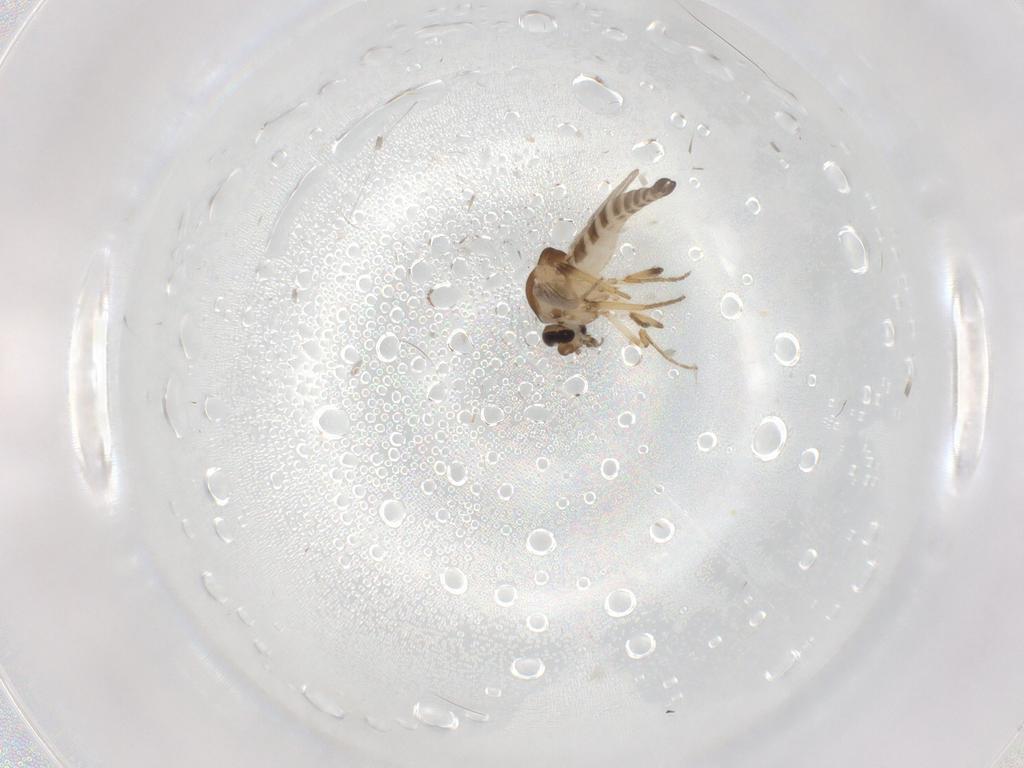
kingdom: Animalia
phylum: Arthropoda
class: Insecta
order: Diptera
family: Ceratopogonidae
